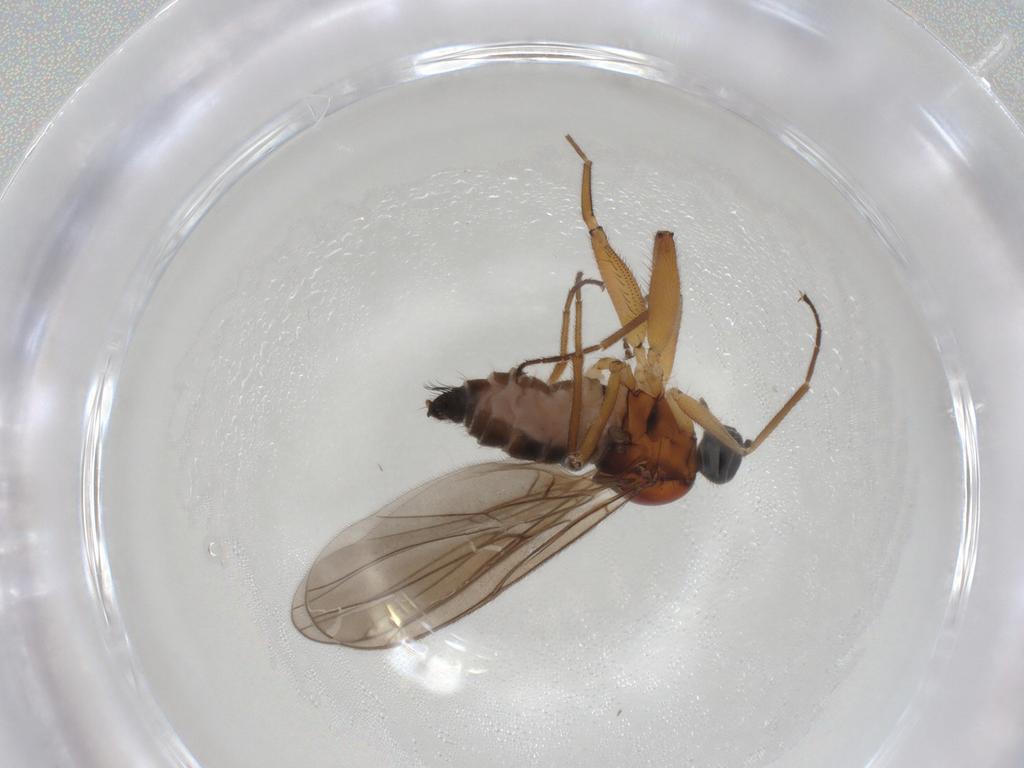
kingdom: Animalia
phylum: Arthropoda
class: Insecta
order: Diptera
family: Hybotidae
